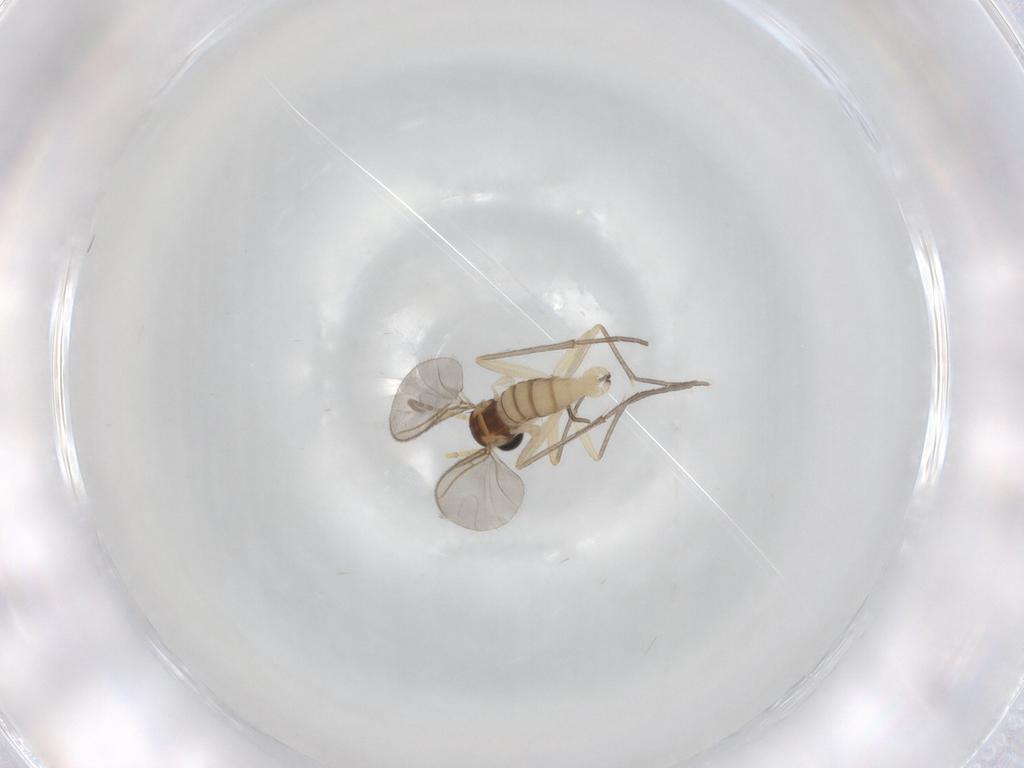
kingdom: Animalia
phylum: Arthropoda
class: Insecta
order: Diptera
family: Sciaridae
